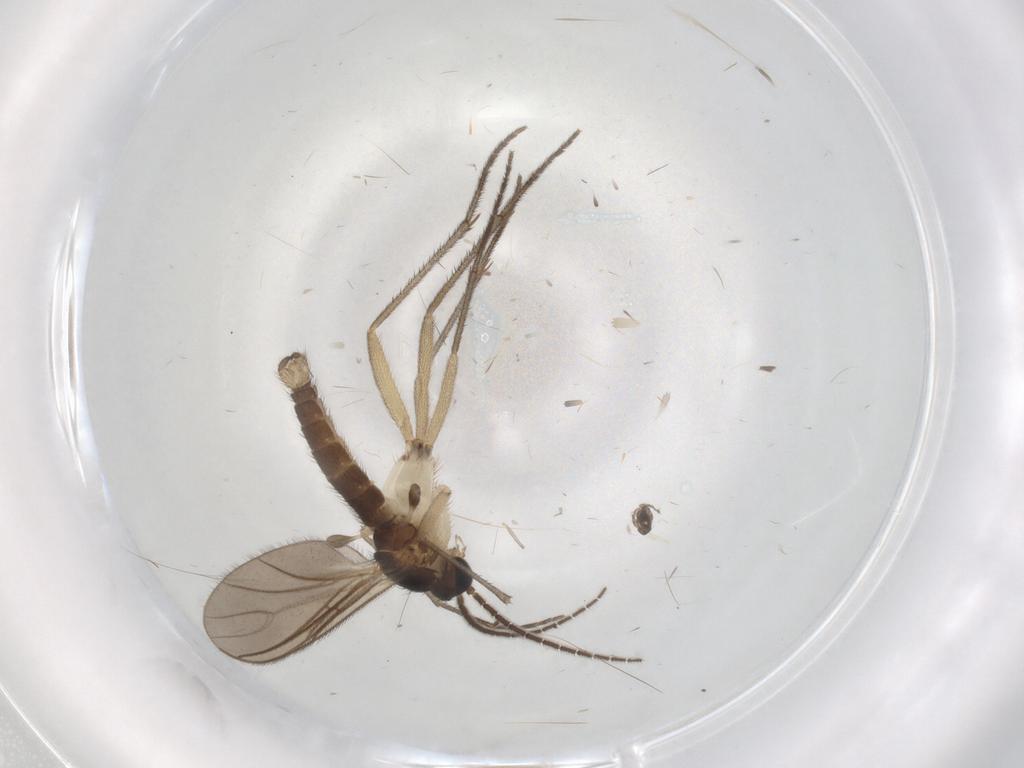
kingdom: Animalia
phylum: Arthropoda
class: Insecta
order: Diptera
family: Sciaridae
